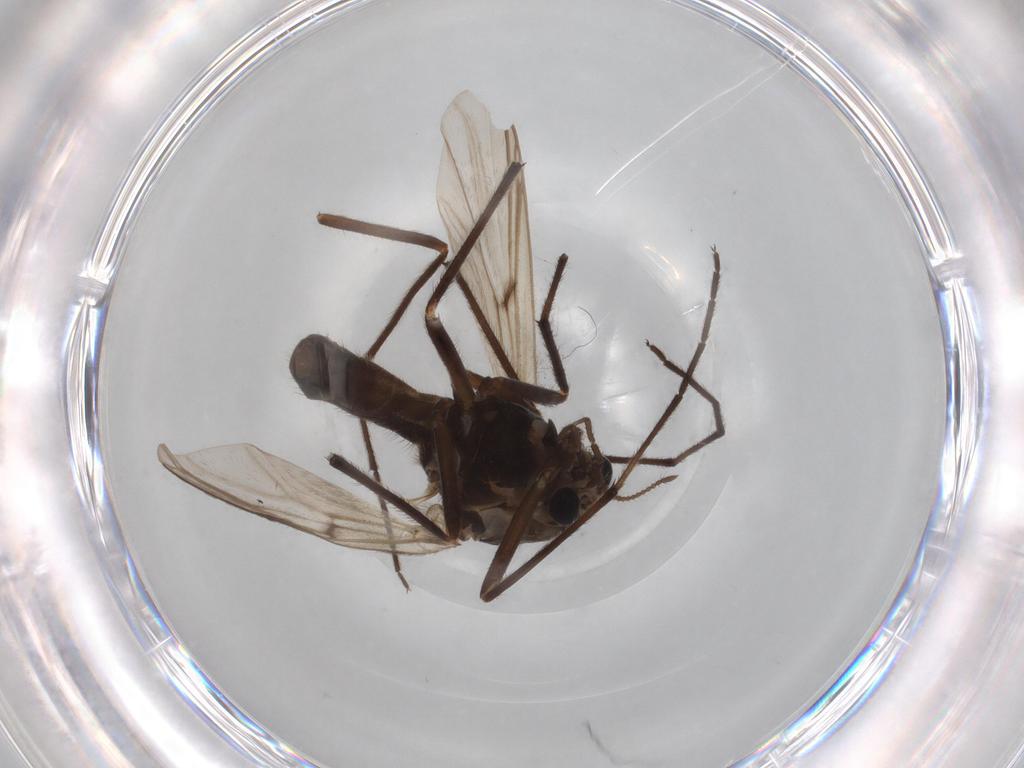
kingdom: Animalia
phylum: Arthropoda
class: Insecta
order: Diptera
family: Chironomidae
